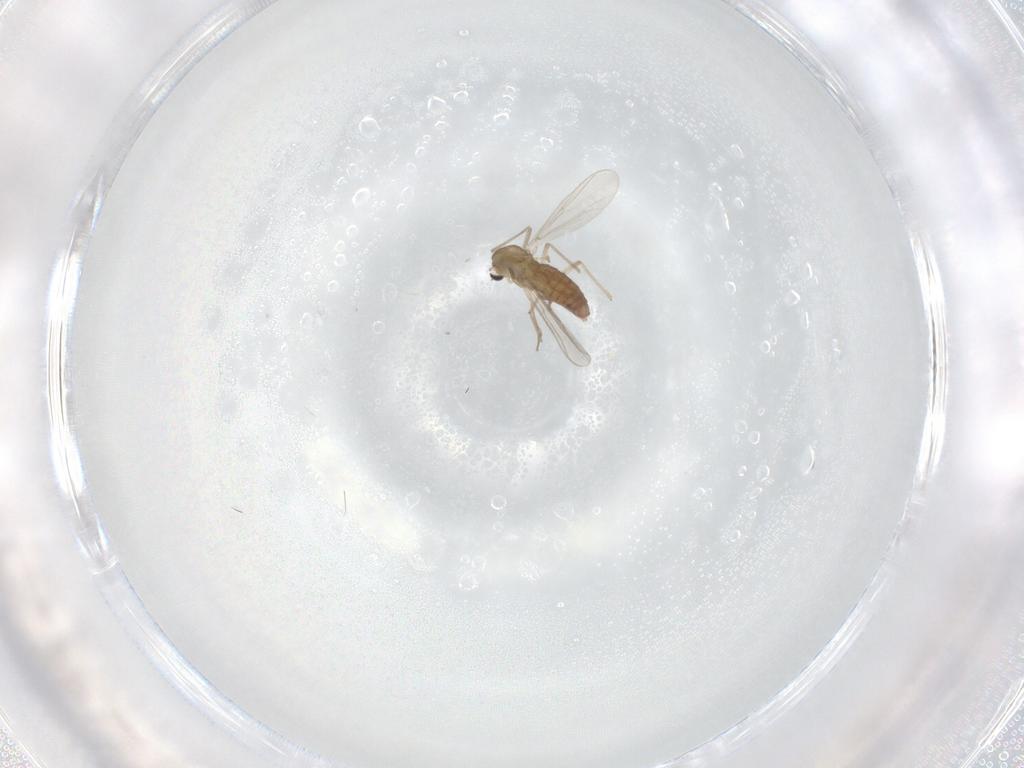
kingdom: Animalia
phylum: Arthropoda
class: Insecta
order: Diptera
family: Chironomidae
